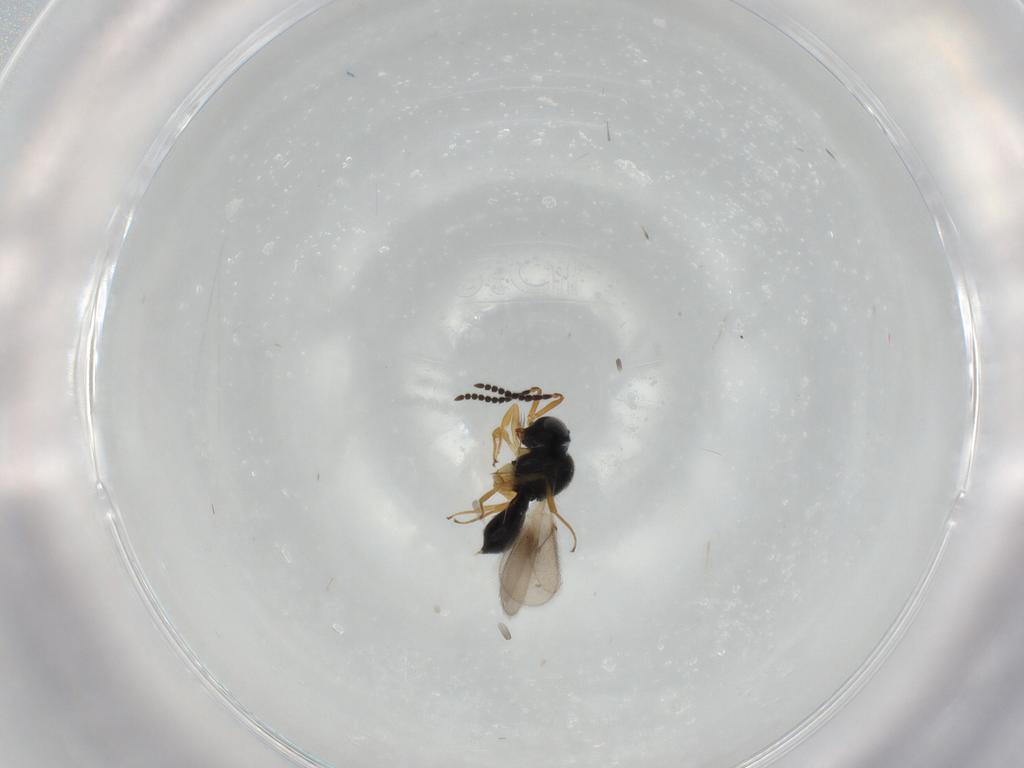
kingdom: Animalia
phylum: Arthropoda
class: Insecta
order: Hymenoptera
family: Scelionidae
